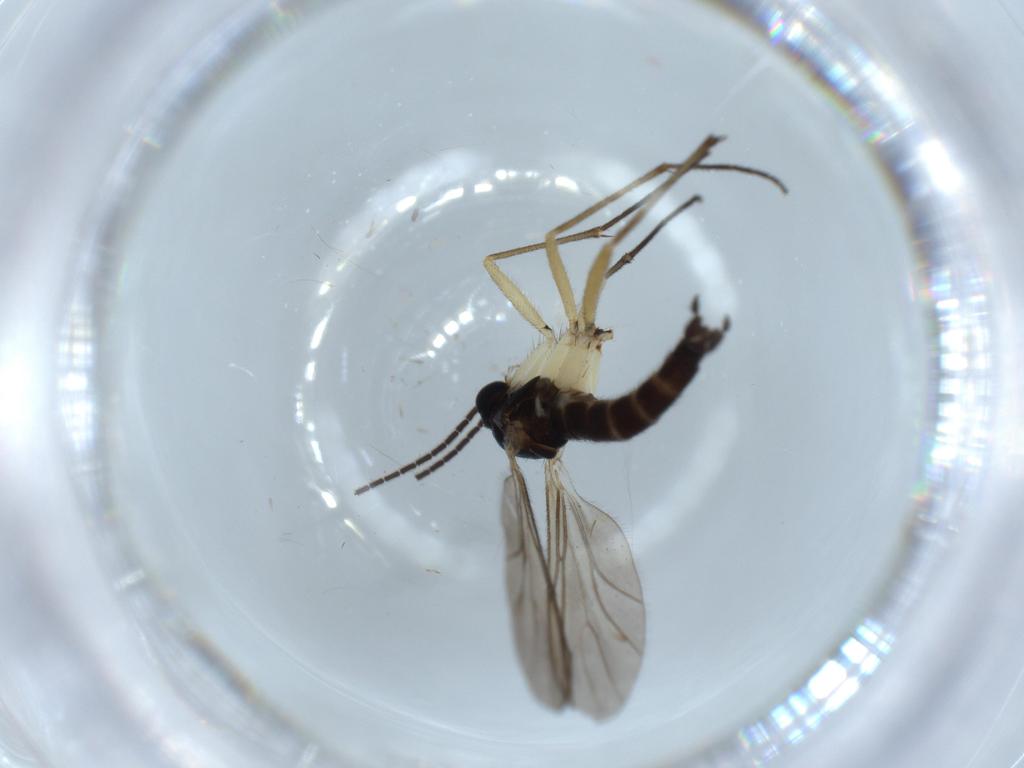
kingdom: Animalia
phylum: Arthropoda
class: Insecta
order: Diptera
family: Sciaridae
